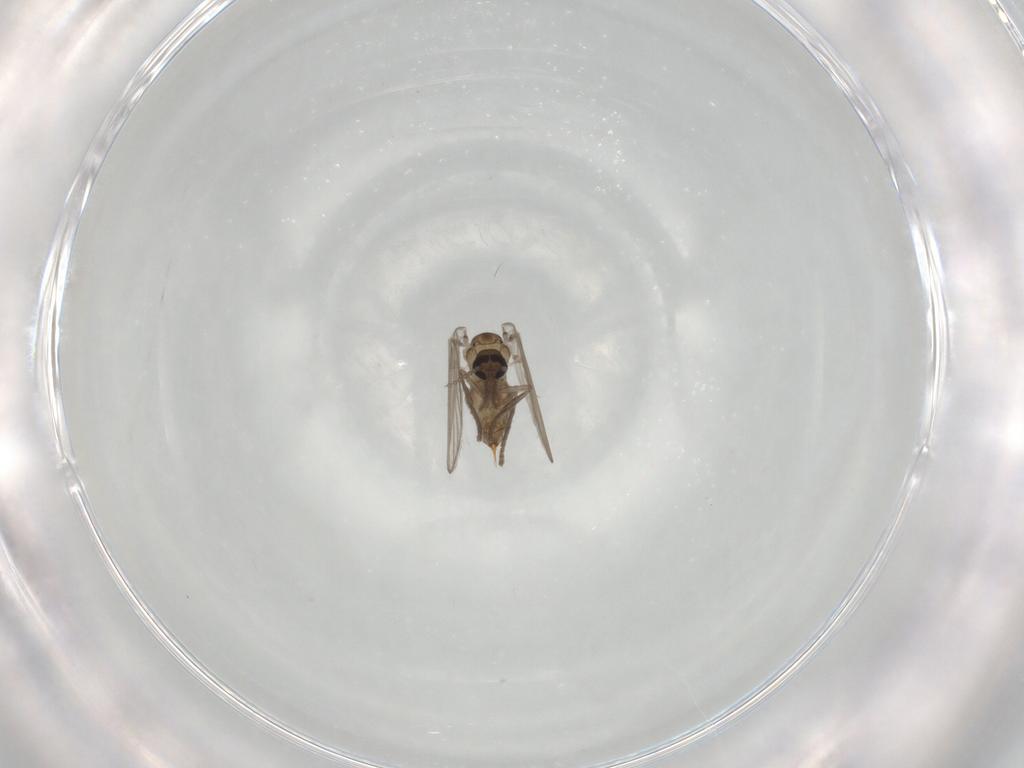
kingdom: Animalia
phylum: Arthropoda
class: Insecta
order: Diptera
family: Psychodidae
